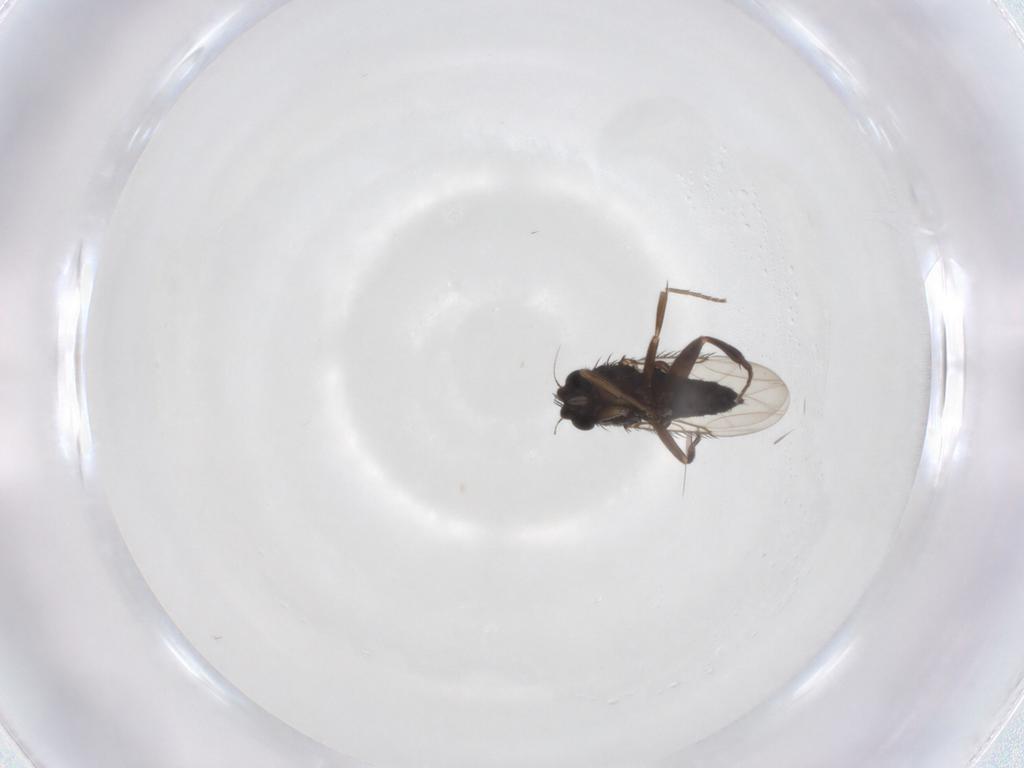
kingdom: Animalia
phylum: Arthropoda
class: Insecta
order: Diptera
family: Phoridae
